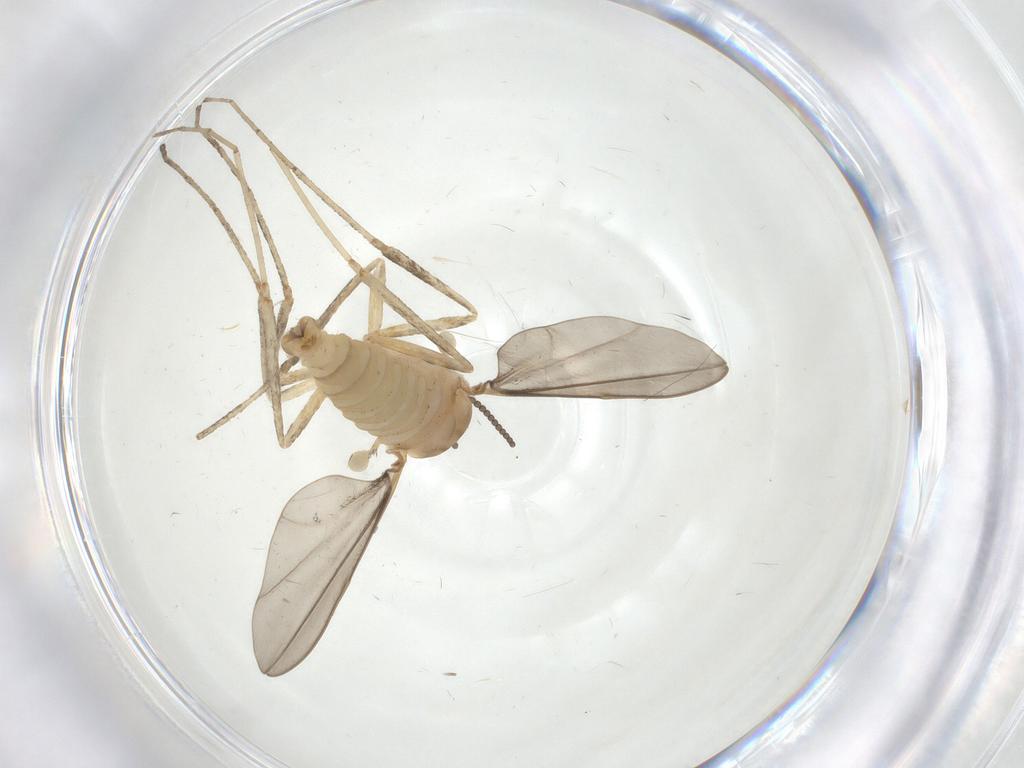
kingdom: Animalia
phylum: Arthropoda
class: Insecta
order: Diptera
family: Cecidomyiidae
